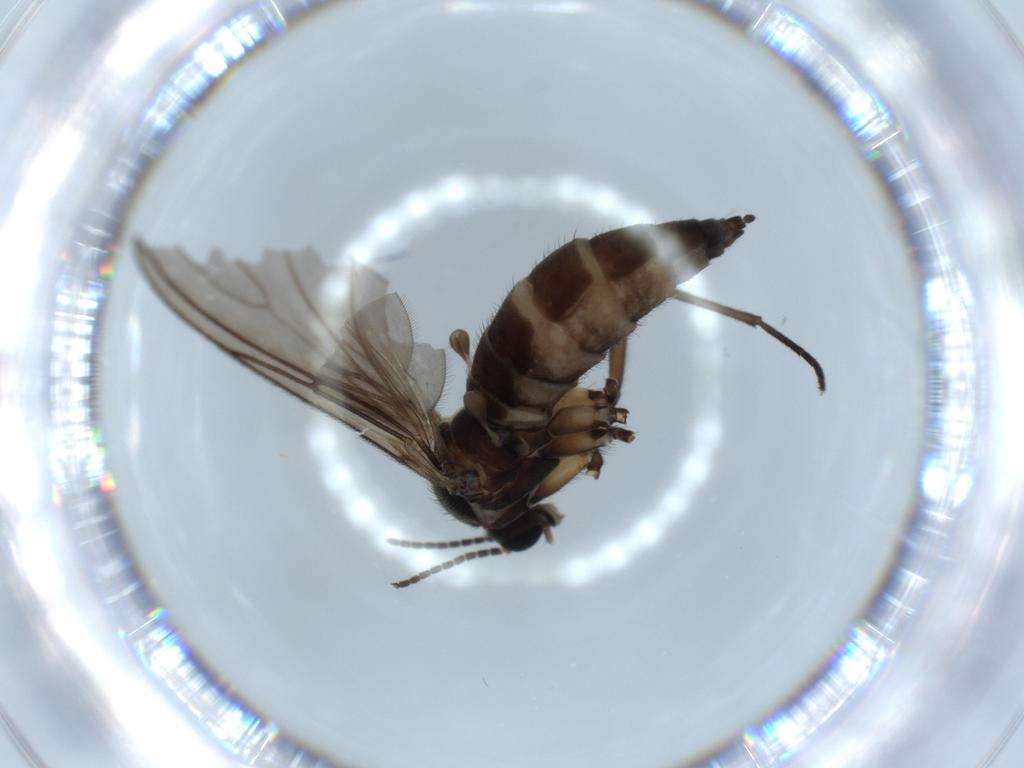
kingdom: Animalia
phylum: Arthropoda
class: Insecta
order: Diptera
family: Sciaridae
